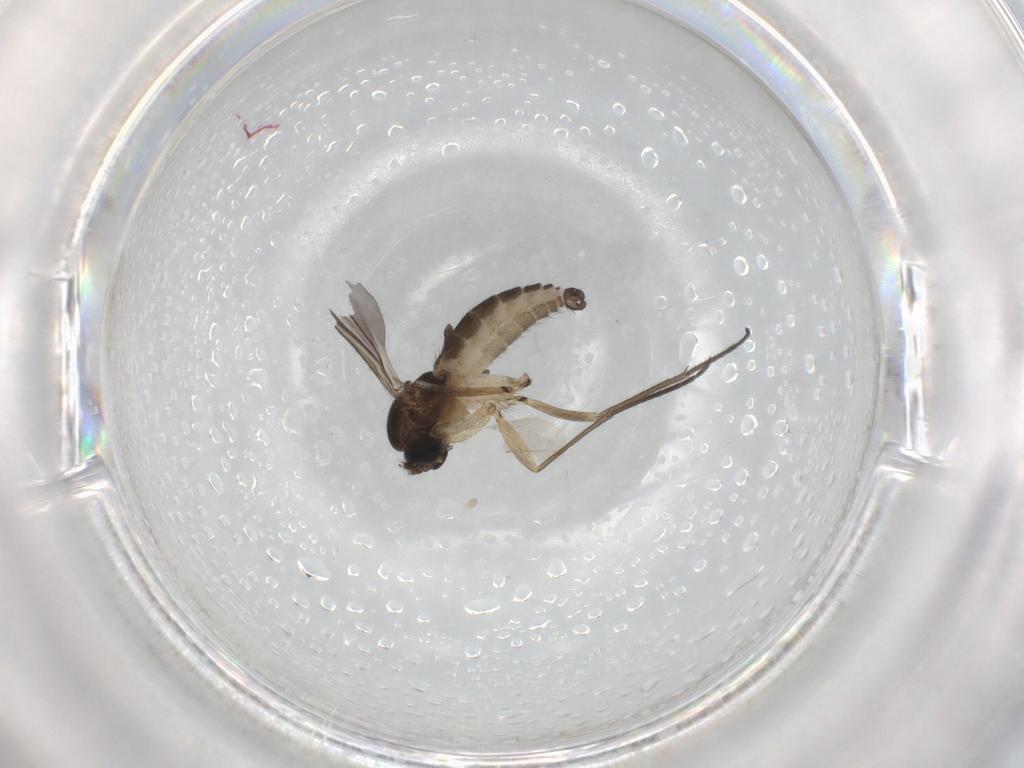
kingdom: Animalia
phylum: Arthropoda
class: Insecta
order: Diptera
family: Sciaridae
